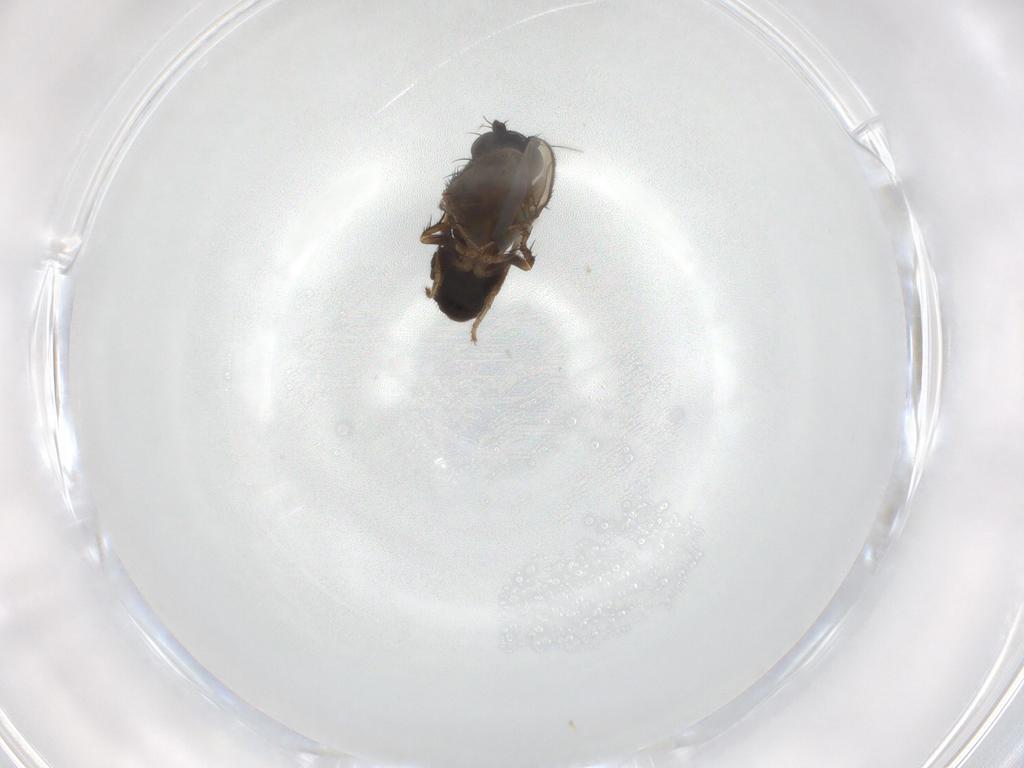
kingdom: Animalia
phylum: Arthropoda
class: Insecta
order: Diptera
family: Sphaeroceridae
